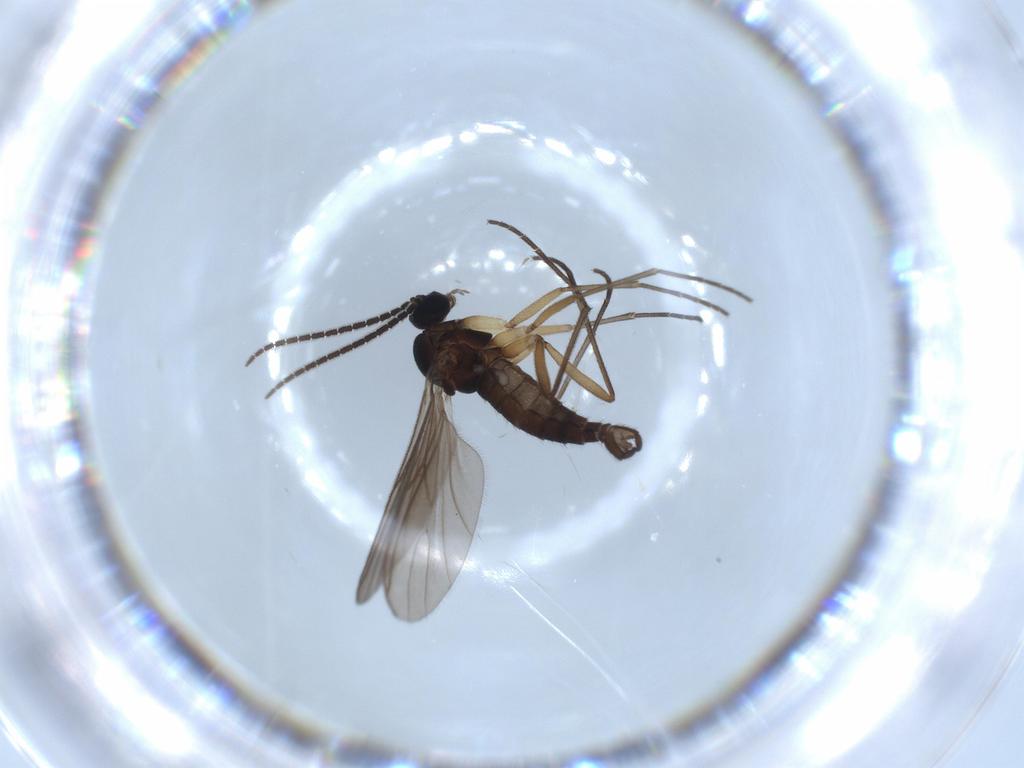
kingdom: Animalia
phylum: Arthropoda
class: Insecta
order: Diptera
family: Sciaridae
